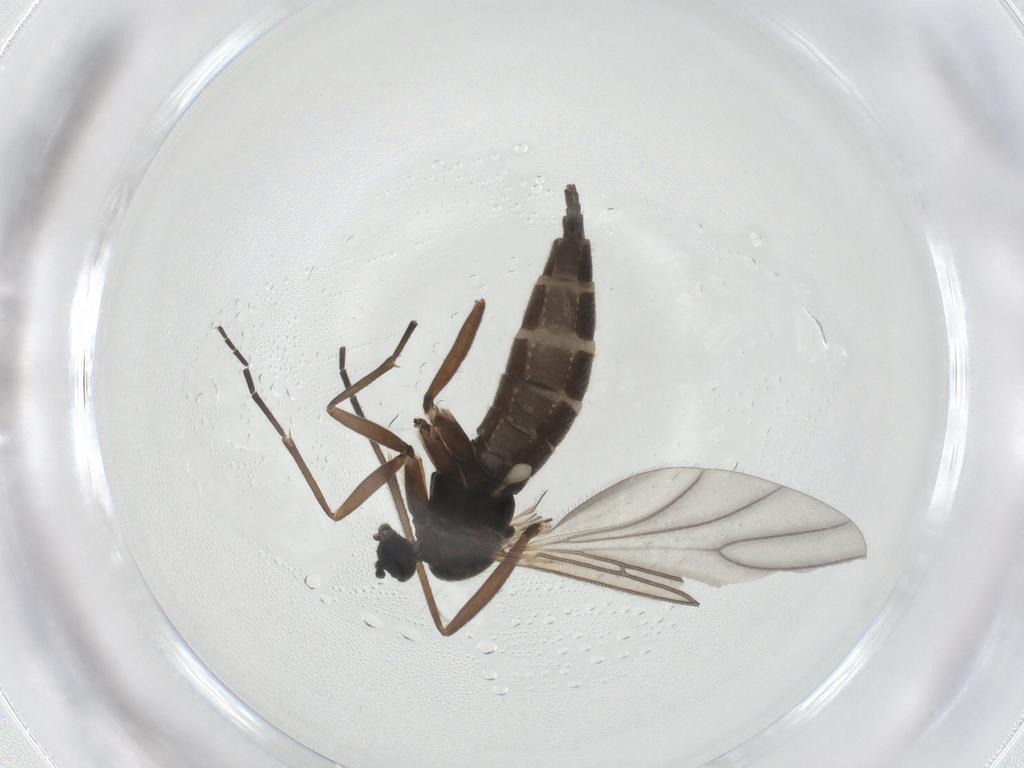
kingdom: Animalia
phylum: Arthropoda
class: Insecta
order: Diptera
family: Sciaridae
